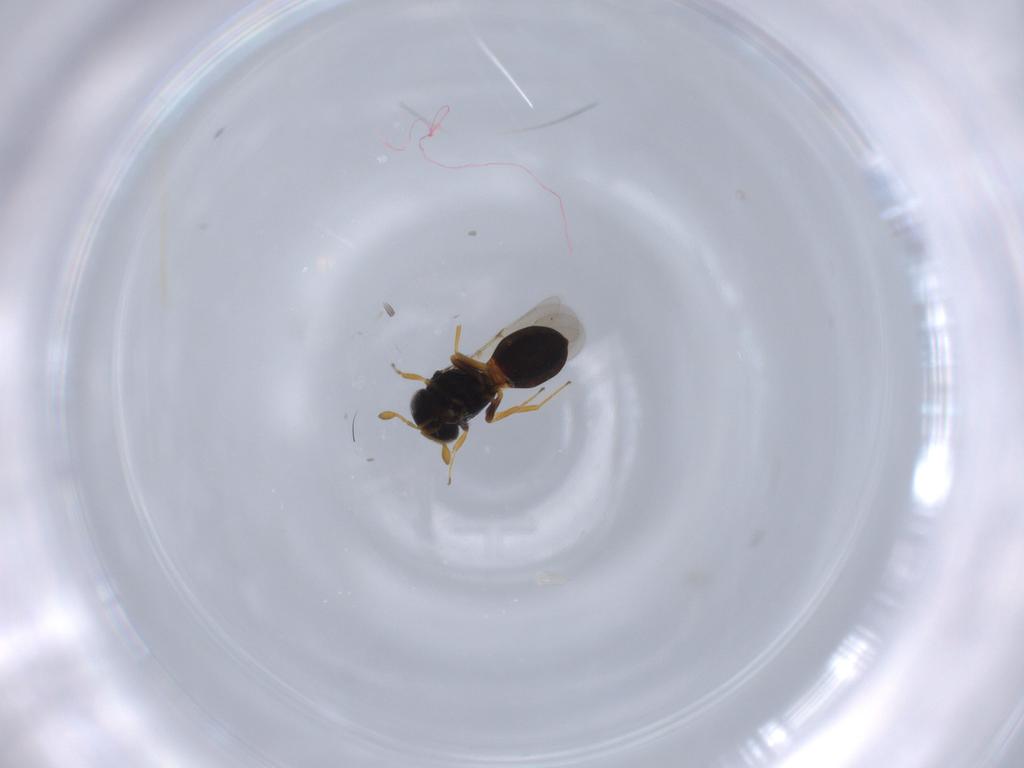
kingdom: Animalia
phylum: Arthropoda
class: Insecta
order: Hymenoptera
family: Scelionidae
